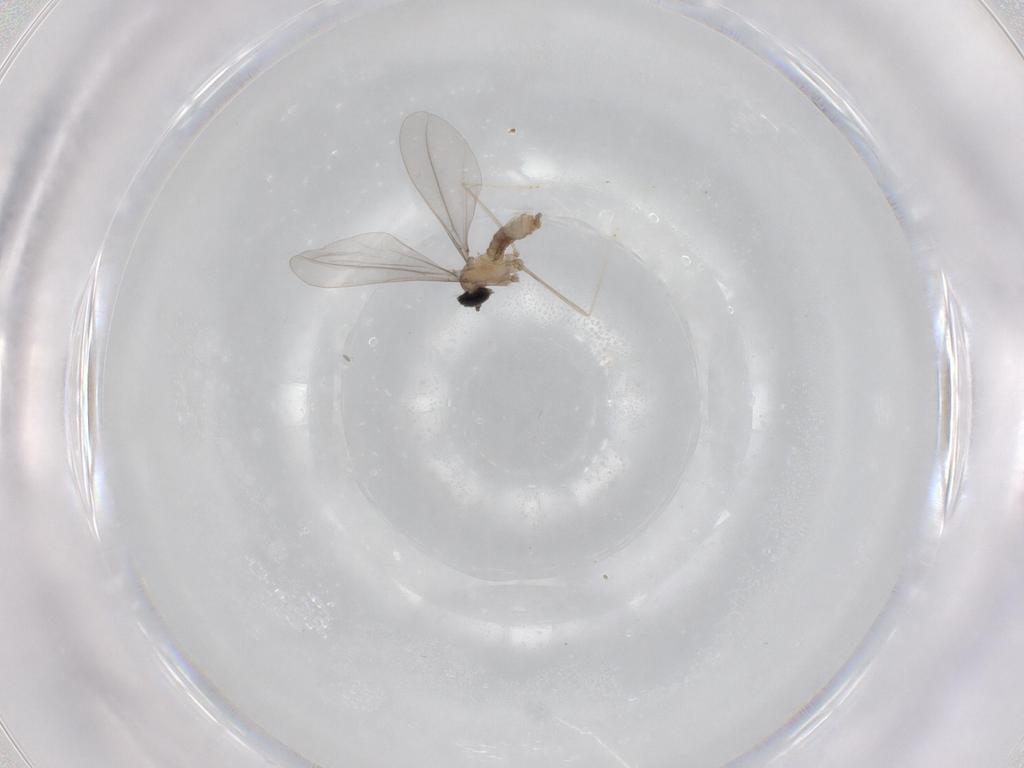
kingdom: Animalia
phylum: Arthropoda
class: Insecta
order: Diptera
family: Cecidomyiidae
